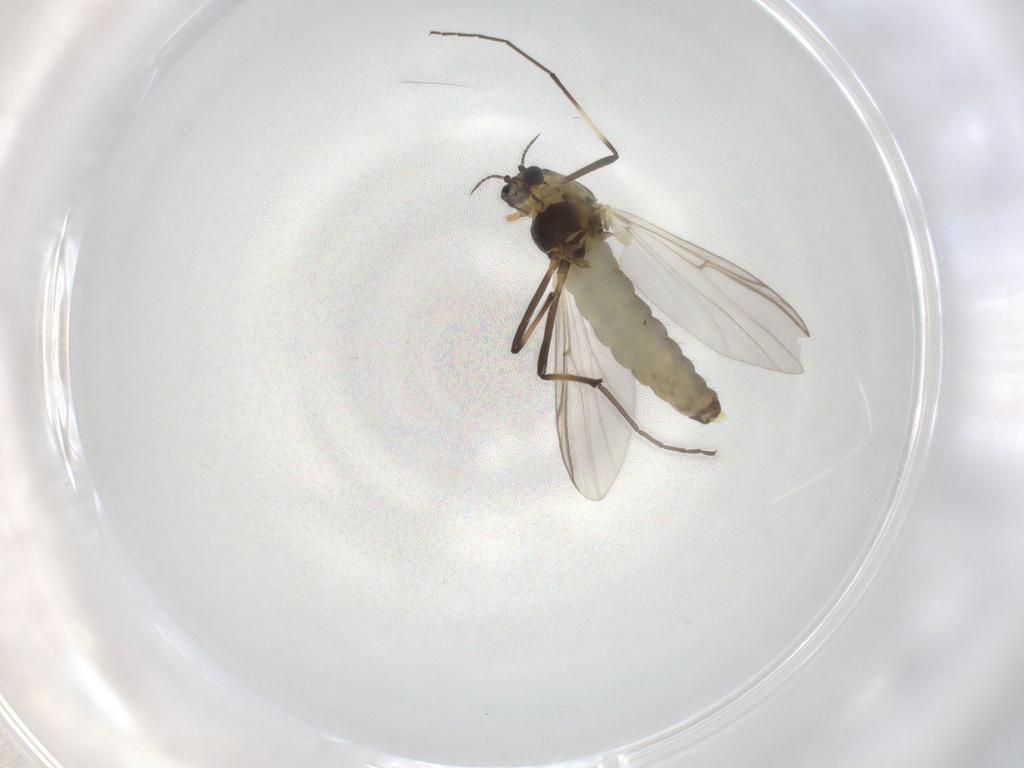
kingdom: Animalia
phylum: Arthropoda
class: Insecta
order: Diptera
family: Chironomidae
